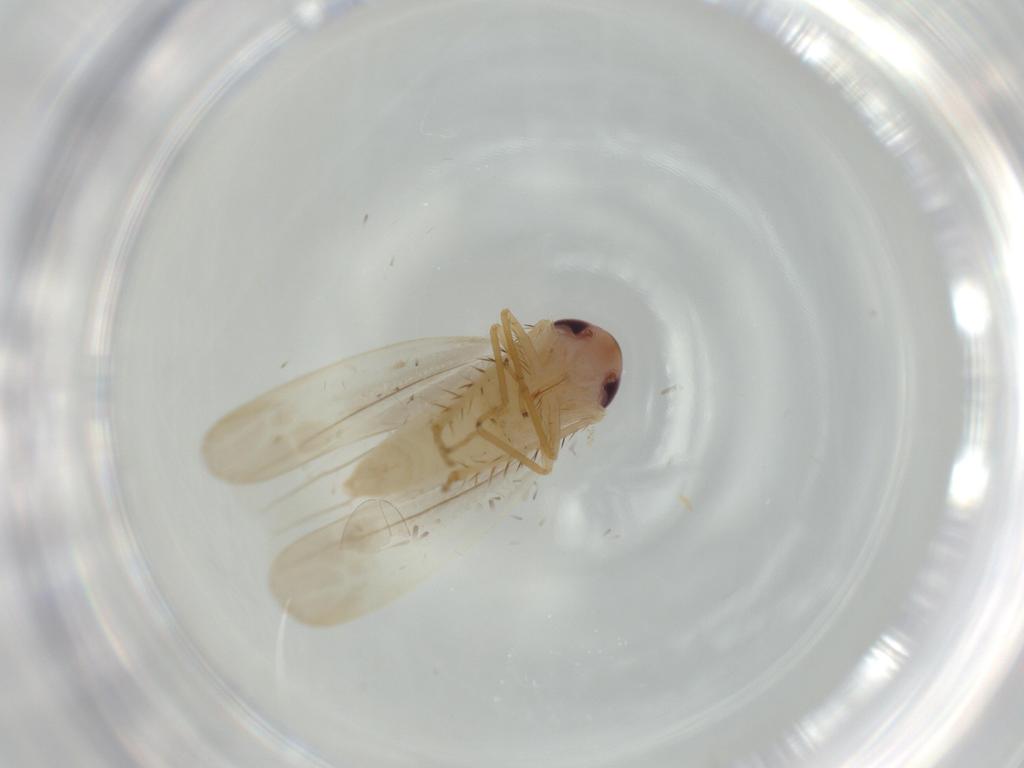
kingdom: Animalia
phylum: Arthropoda
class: Insecta
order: Hemiptera
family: Cicadellidae
